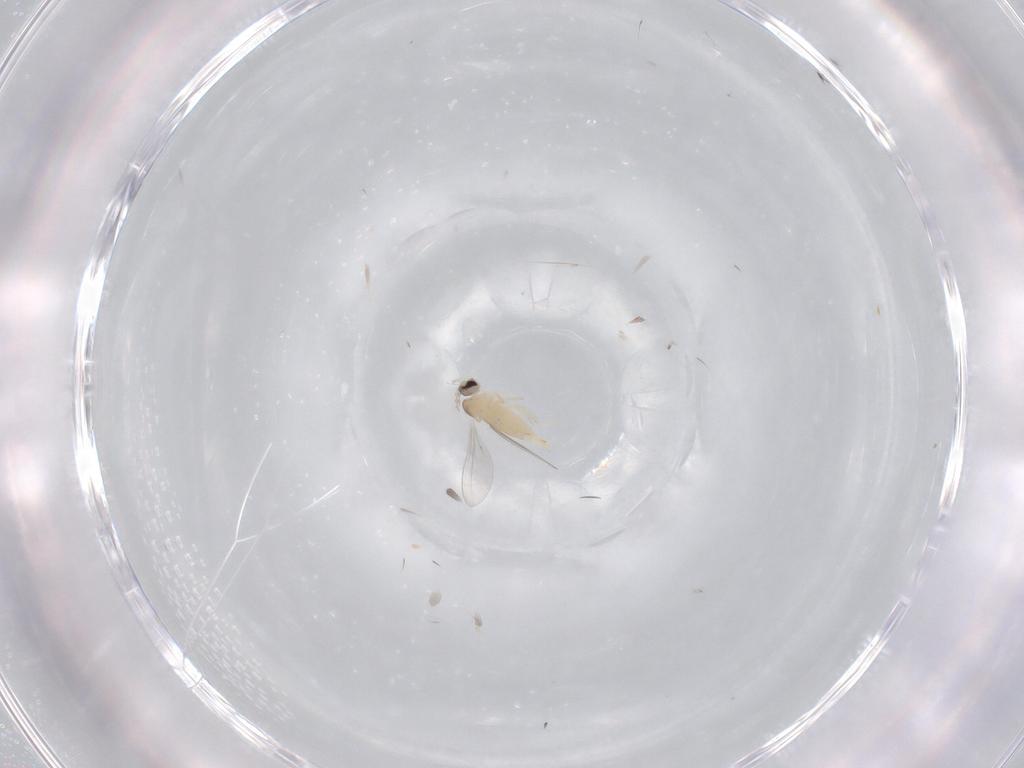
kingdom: Animalia
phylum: Arthropoda
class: Insecta
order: Diptera
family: Cecidomyiidae
